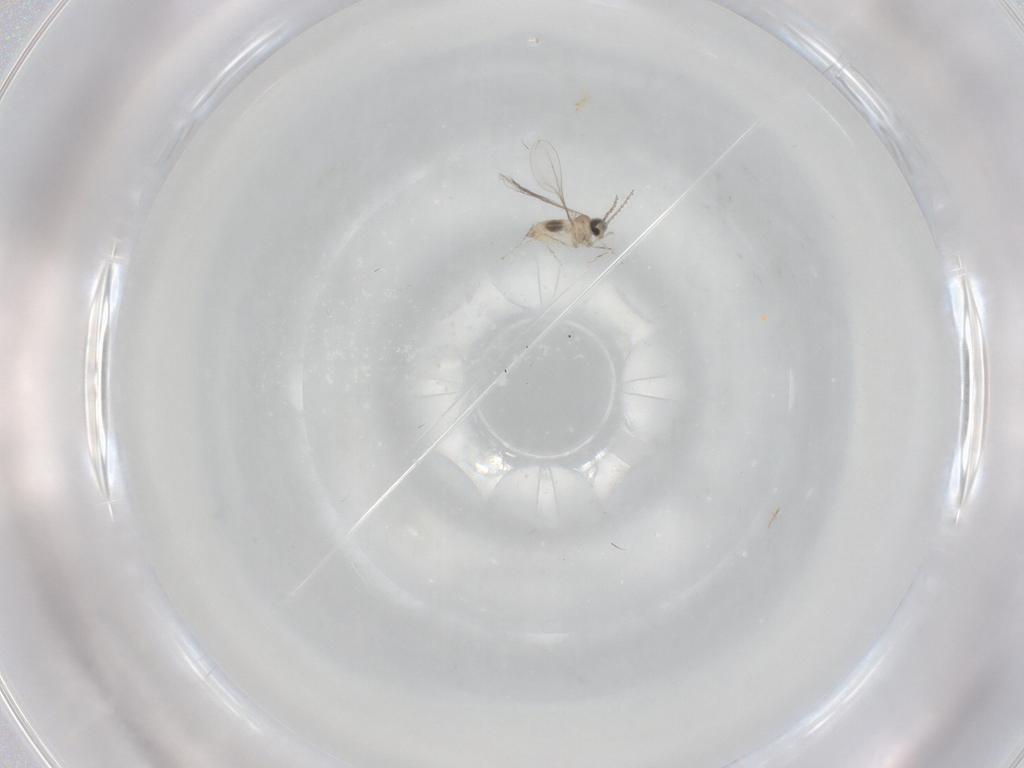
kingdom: Animalia
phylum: Arthropoda
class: Insecta
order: Diptera
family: Cecidomyiidae
